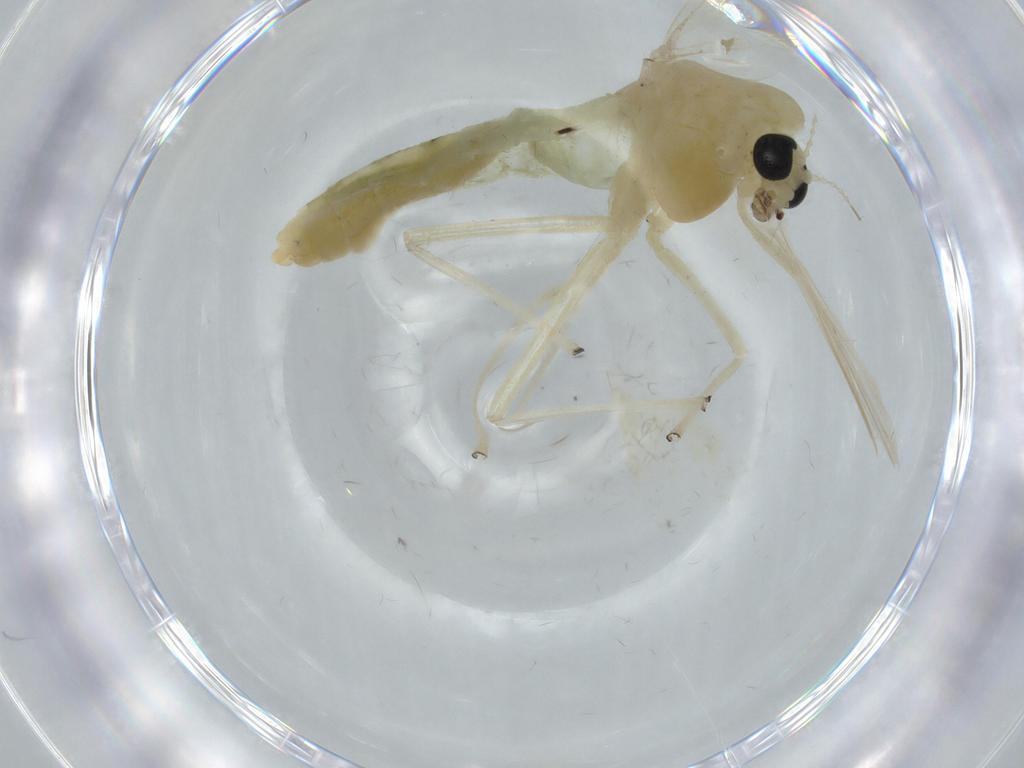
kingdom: Animalia
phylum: Arthropoda
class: Insecta
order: Diptera
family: Chironomidae
